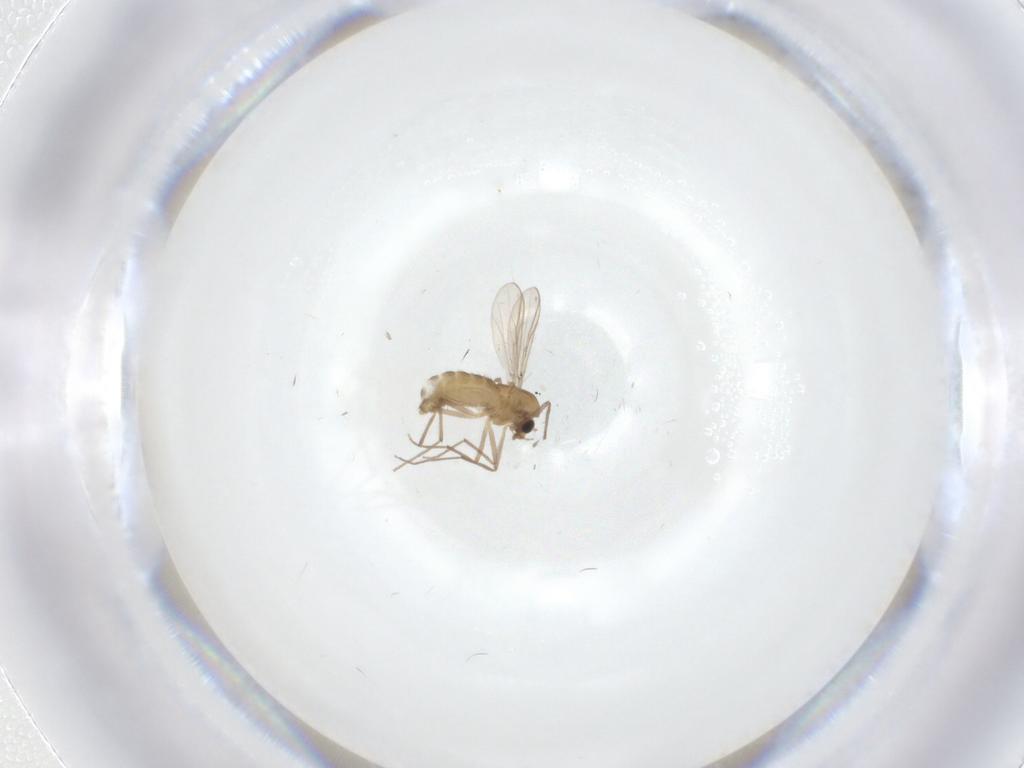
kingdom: Animalia
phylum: Arthropoda
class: Insecta
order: Diptera
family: Chironomidae
